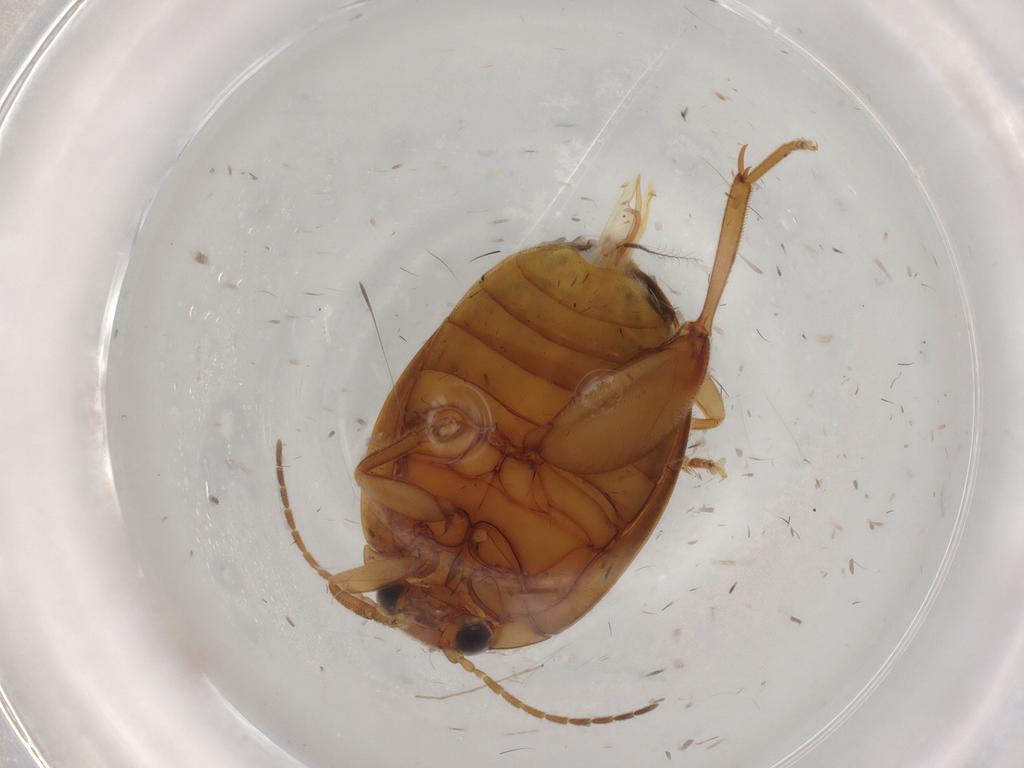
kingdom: Animalia
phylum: Arthropoda
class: Insecta
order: Coleoptera
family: Scirtidae
